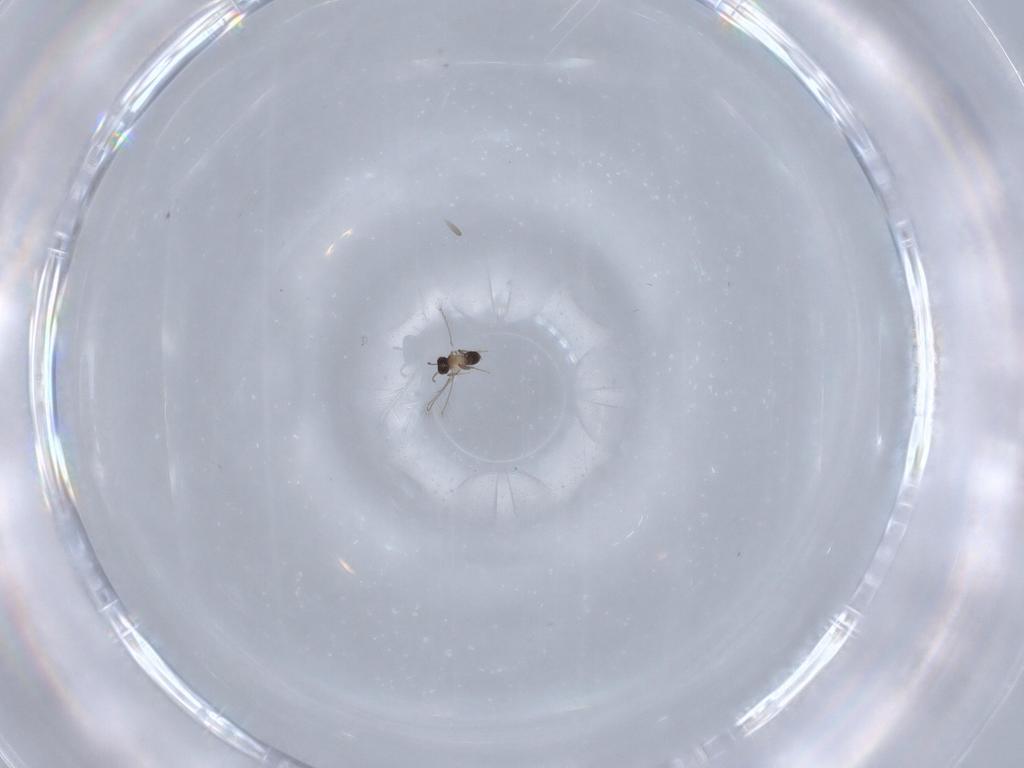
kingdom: Animalia
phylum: Arthropoda
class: Insecta
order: Hymenoptera
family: Mymaridae
